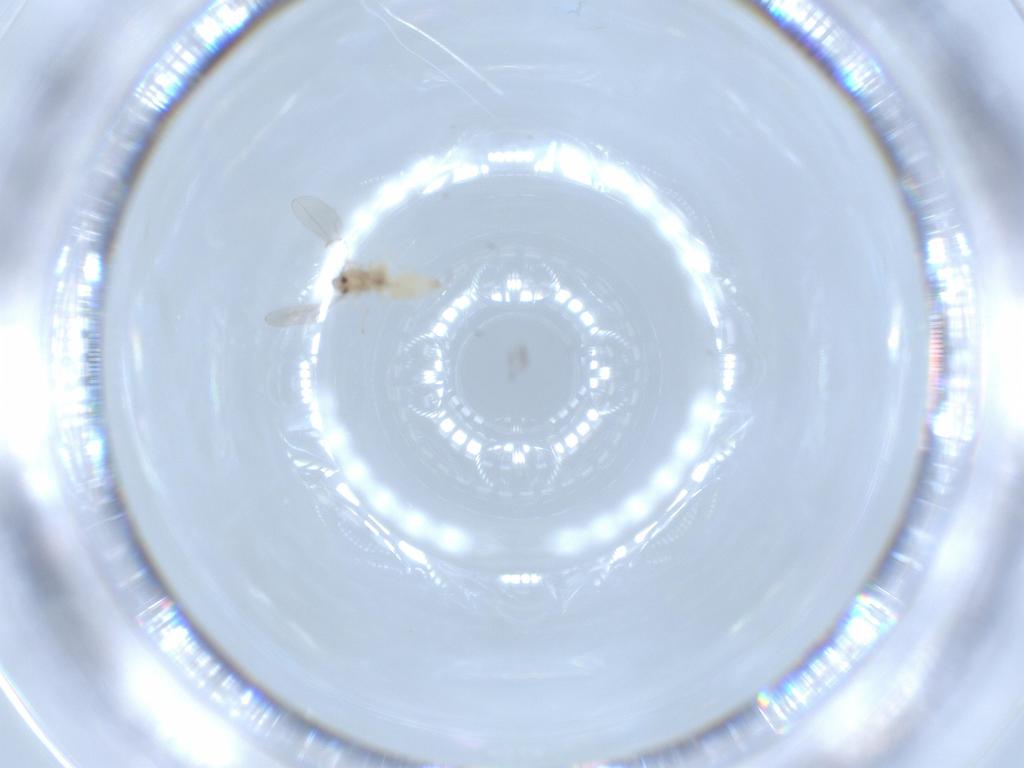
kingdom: Animalia
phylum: Arthropoda
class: Insecta
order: Diptera
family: Cecidomyiidae
